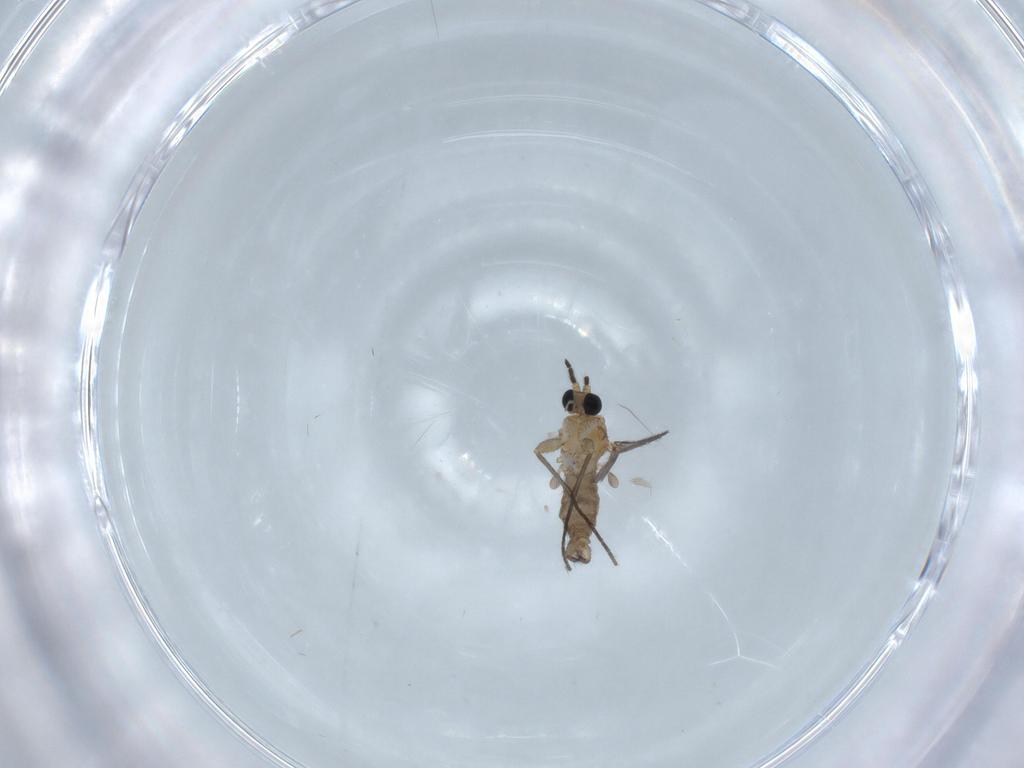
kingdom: Animalia
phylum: Arthropoda
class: Insecta
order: Diptera
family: Sciaridae
